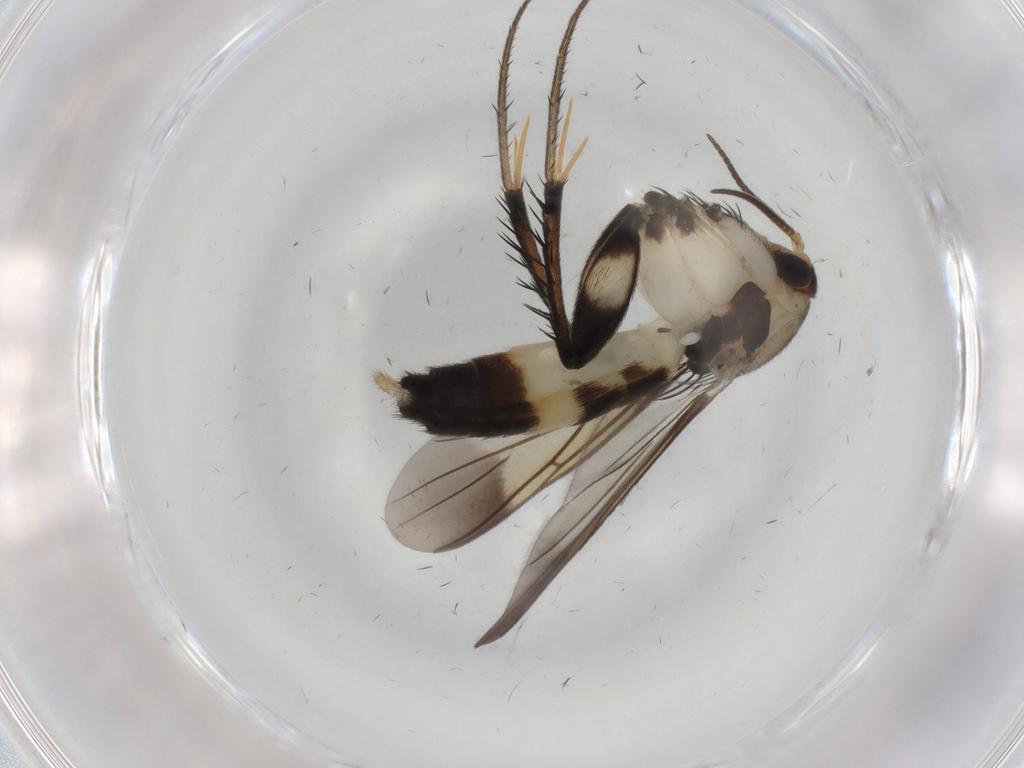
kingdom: Animalia
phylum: Arthropoda
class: Insecta
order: Diptera
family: Mycetophilidae
